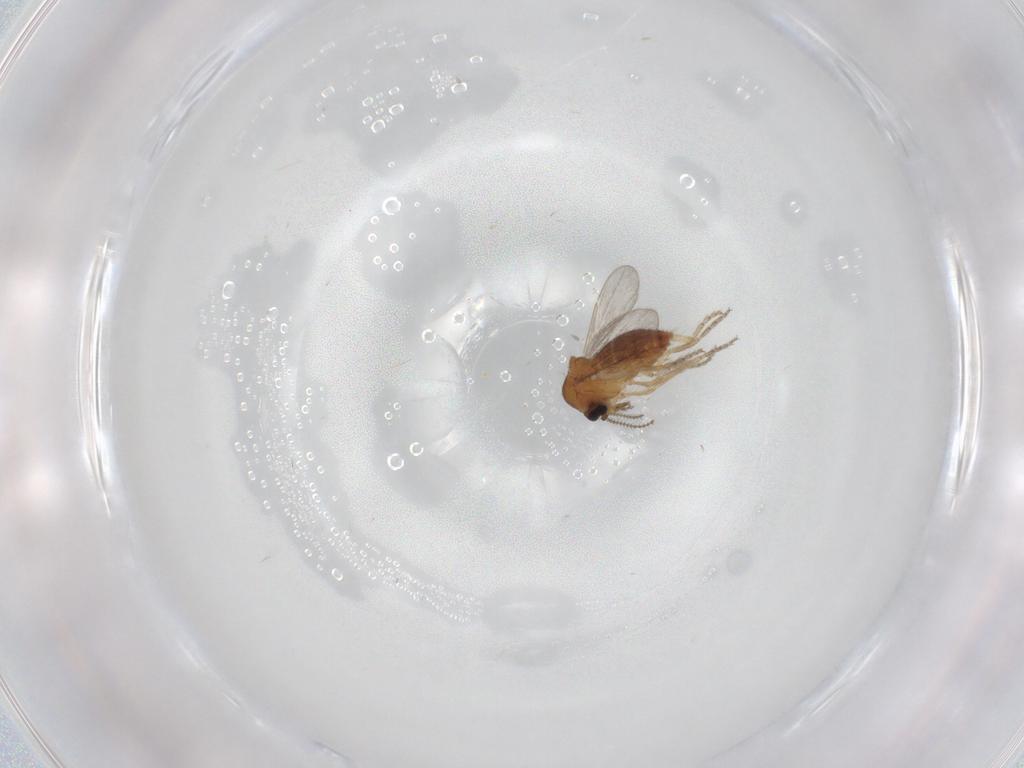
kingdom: Animalia
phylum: Arthropoda
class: Insecta
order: Diptera
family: Ceratopogonidae
